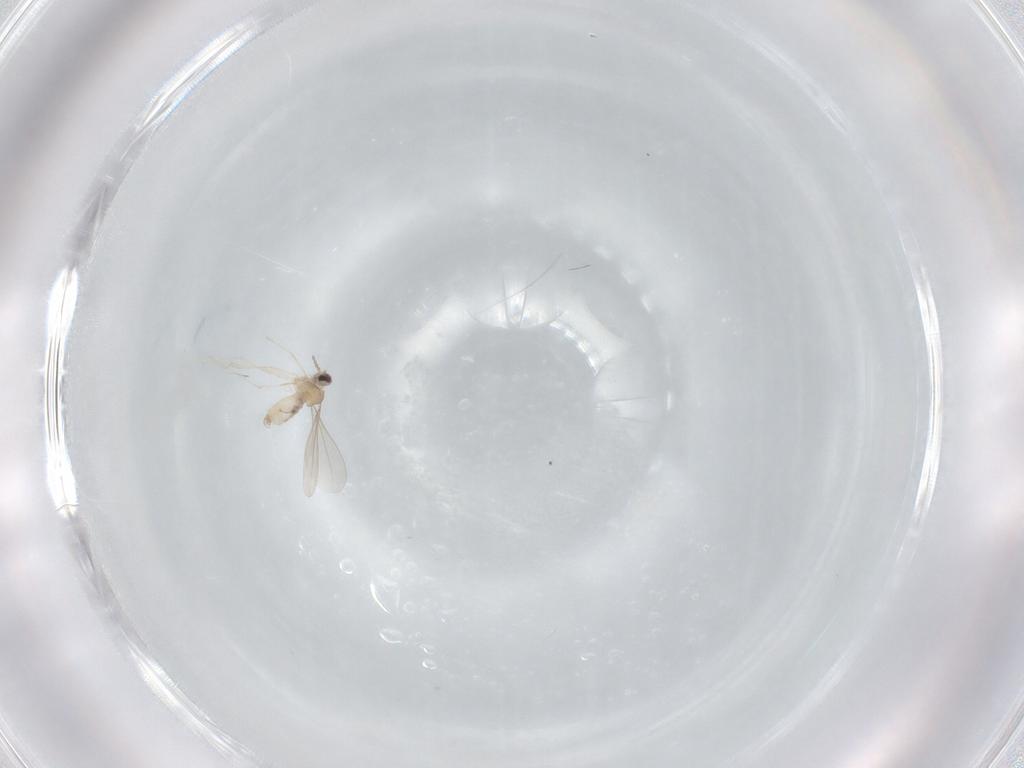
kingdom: Animalia
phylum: Arthropoda
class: Insecta
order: Diptera
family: Cecidomyiidae
